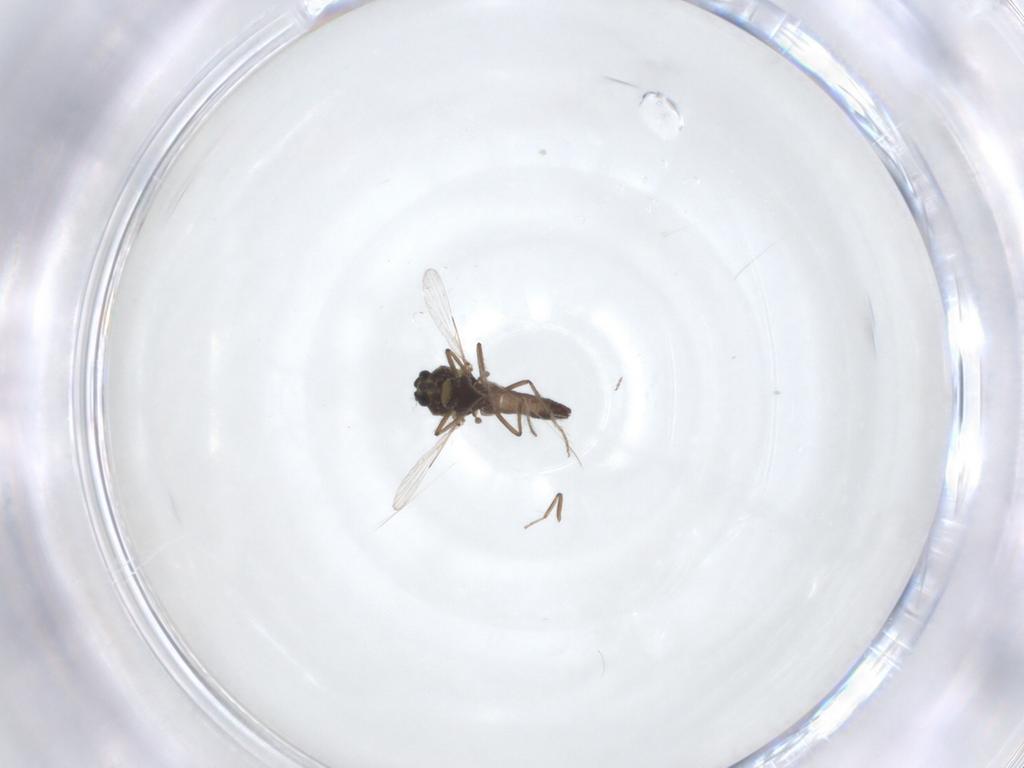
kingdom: Animalia
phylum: Arthropoda
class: Insecta
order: Diptera
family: Ceratopogonidae
